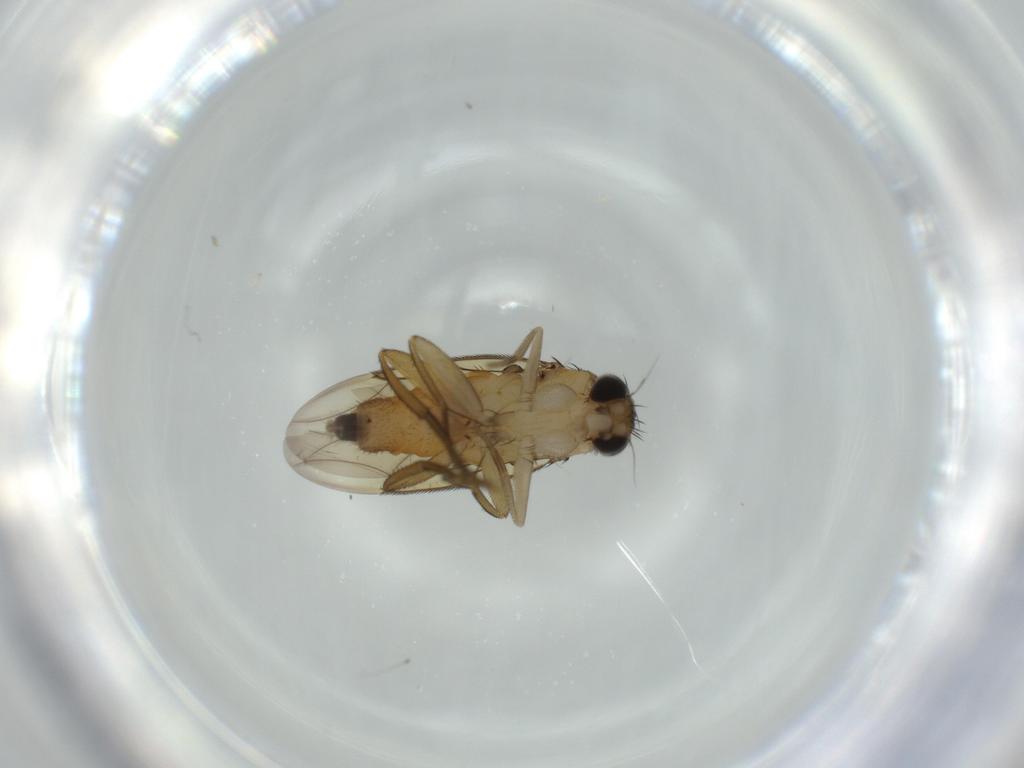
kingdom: Animalia
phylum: Arthropoda
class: Insecta
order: Diptera
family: Phoridae
